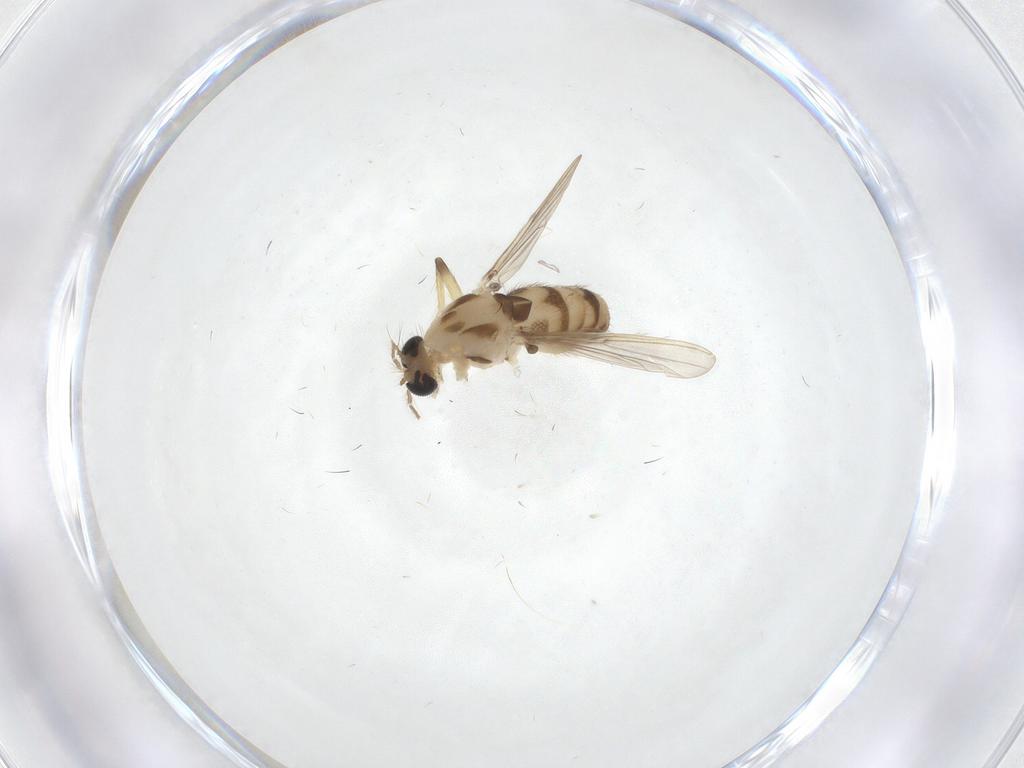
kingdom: Animalia
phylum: Arthropoda
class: Insecta
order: Diptera
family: Chironomidae
